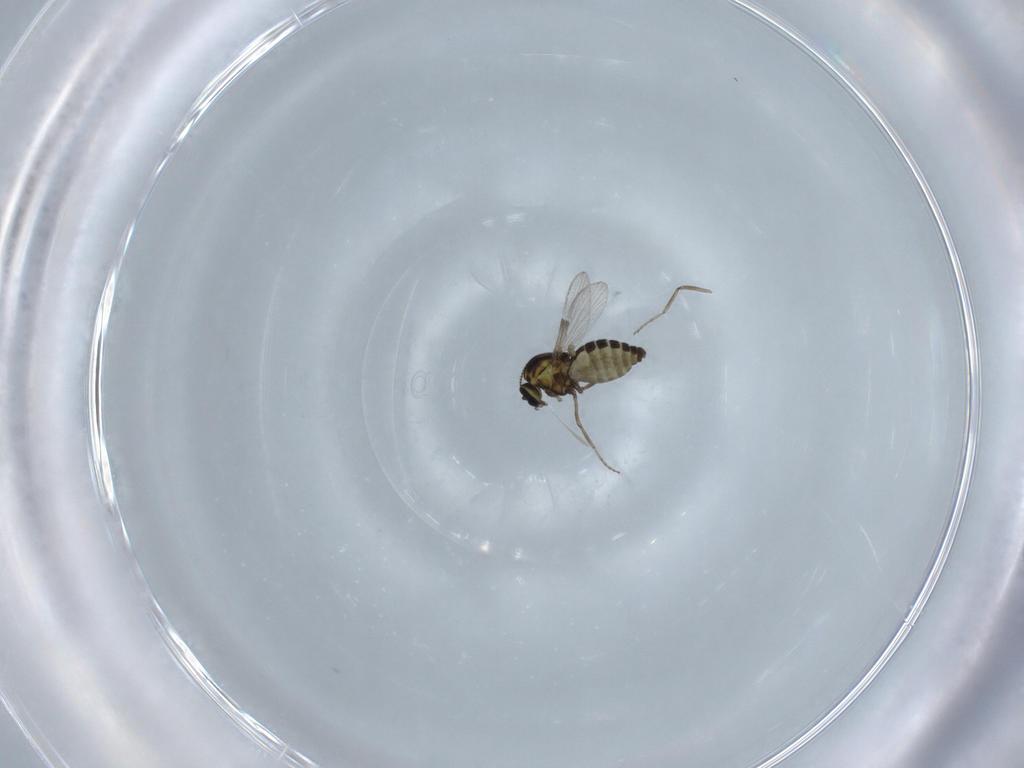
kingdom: Animalia
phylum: Arthropoda
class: Insecta
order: Diptera
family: Ceratopogonidae
